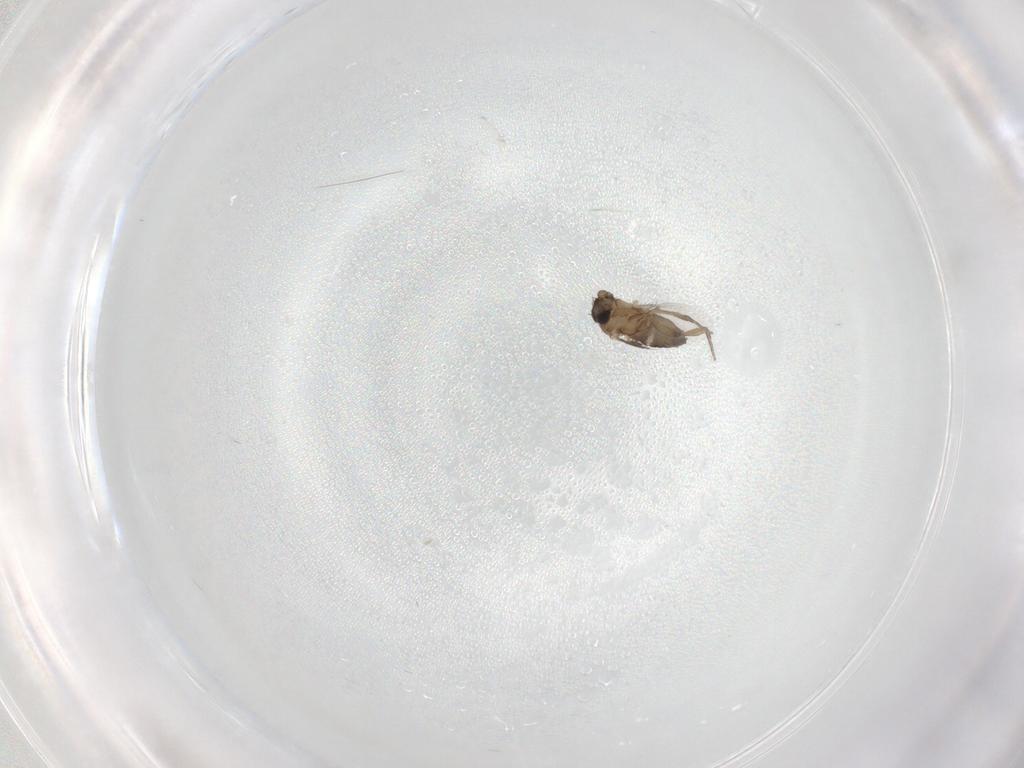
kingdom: Animalia
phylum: Arthropoda
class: Insecta
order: Diptera
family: Phoridae
